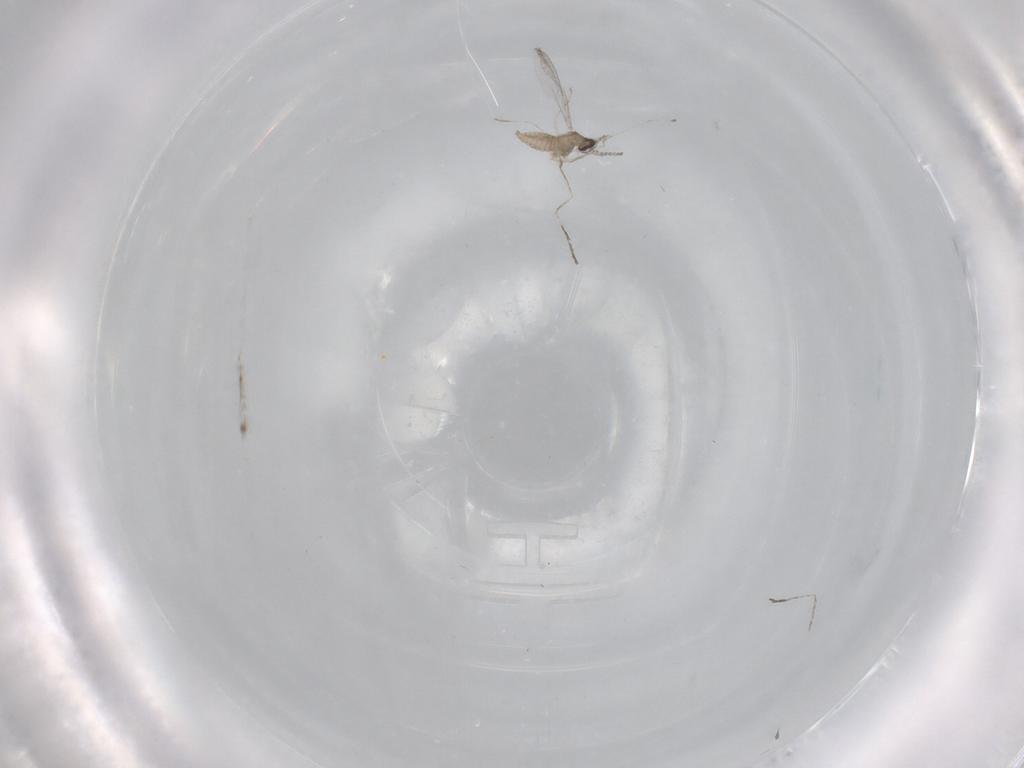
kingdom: Animalia
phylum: Arthropoda
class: Insecta
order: Diptera
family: Cecidomyiidae
